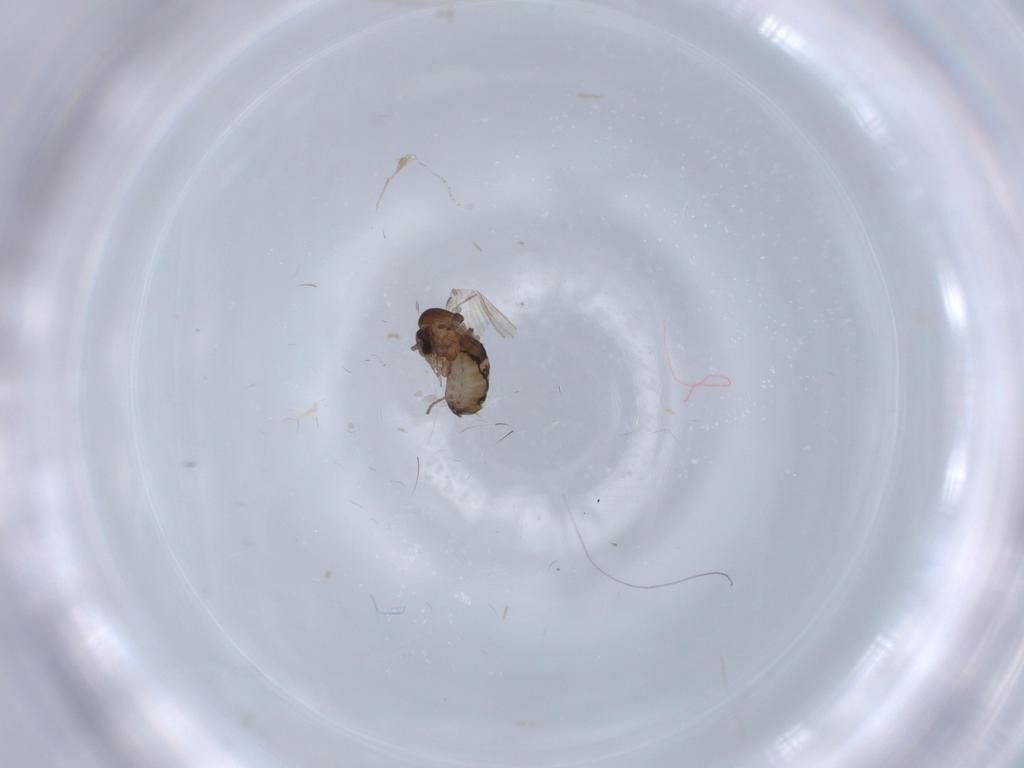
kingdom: Animalia
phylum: Arthropoda
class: Insecta
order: Diptera
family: Psychodidae
